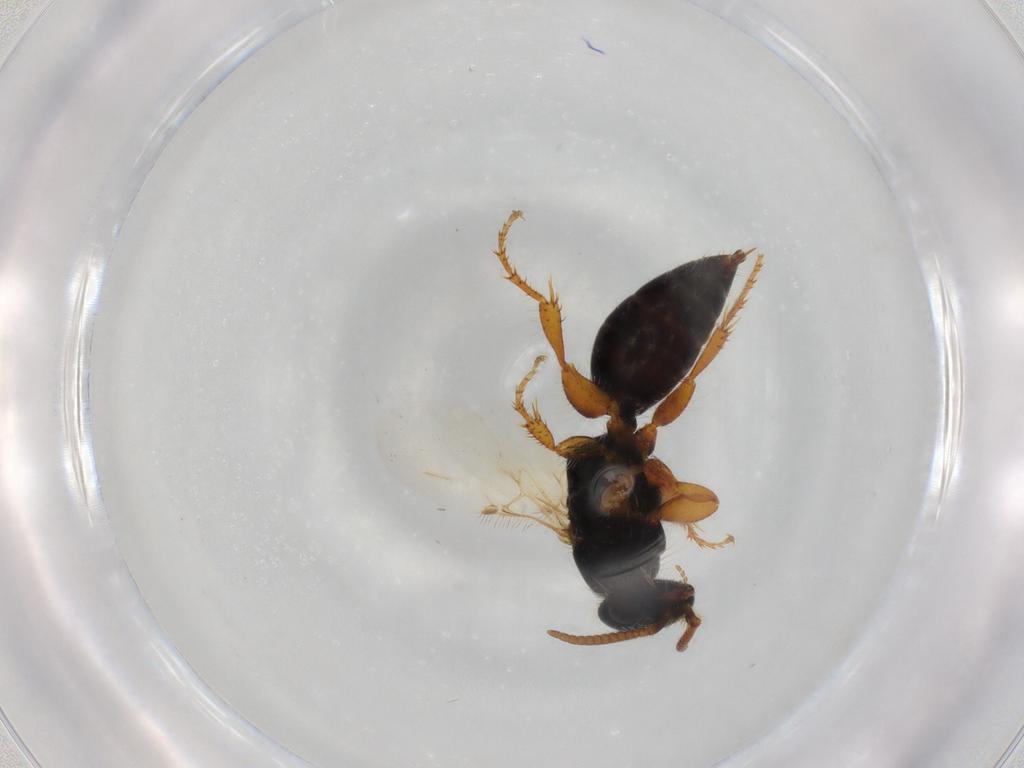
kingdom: Animalia
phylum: Arthropoda
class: Insecta
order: Hymenoptera
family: Bethylidae
